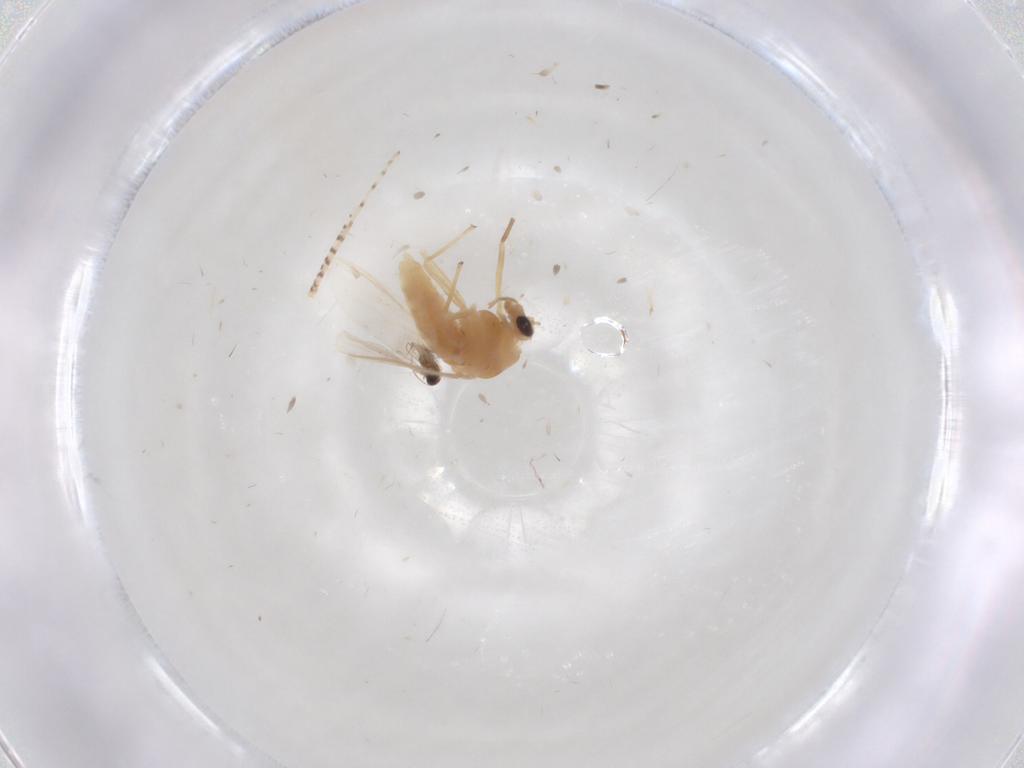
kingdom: Animalia
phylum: Arthropoda
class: Insecta
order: Diptera
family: Chironomidae
